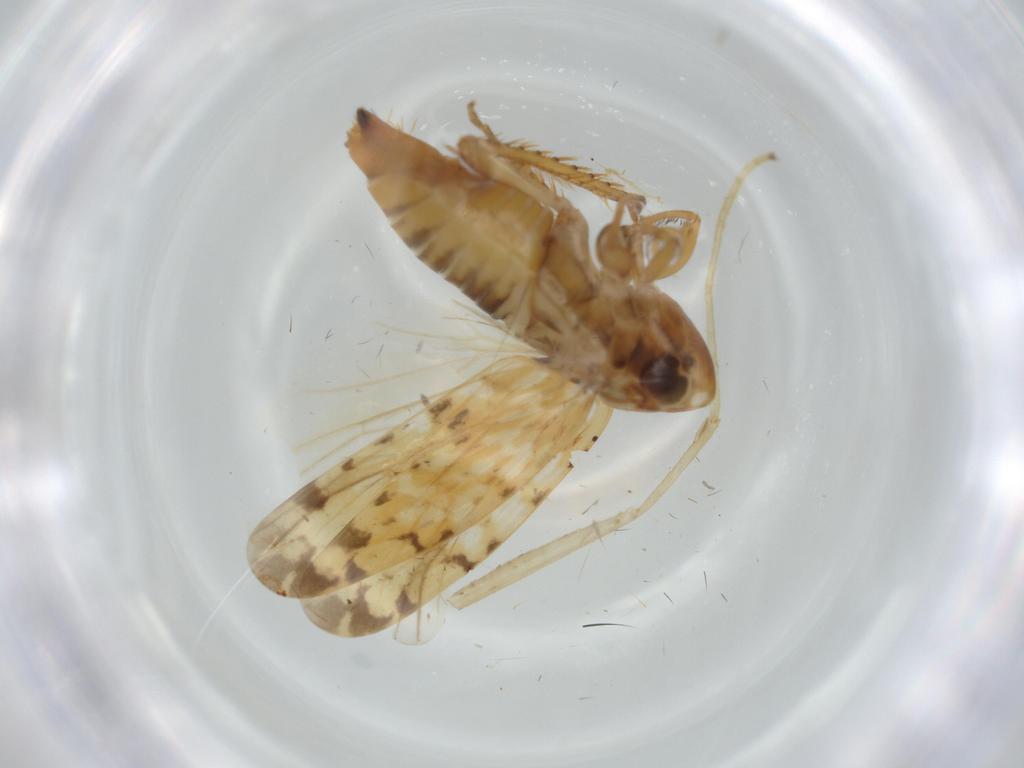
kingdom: Animalia
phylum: Arthropoda
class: Insecta
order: Hemiptera
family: Cicadellidae
